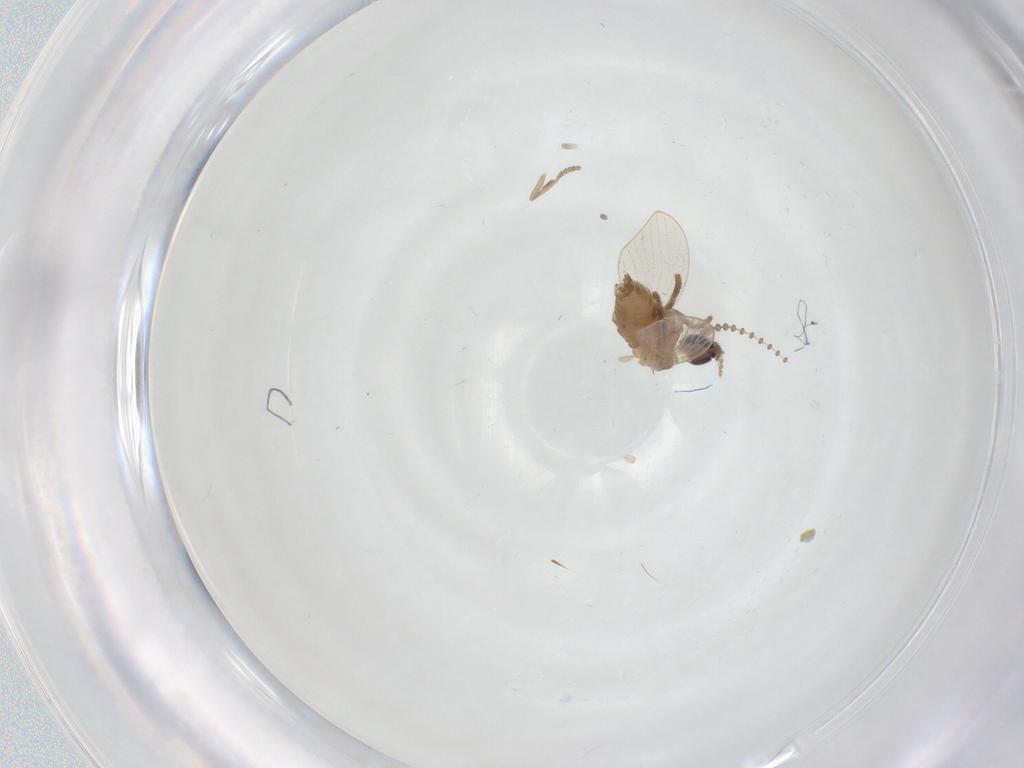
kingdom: Animalia
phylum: Arthropoda
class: Insecta
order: Diptera
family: Cecidomyiidae
